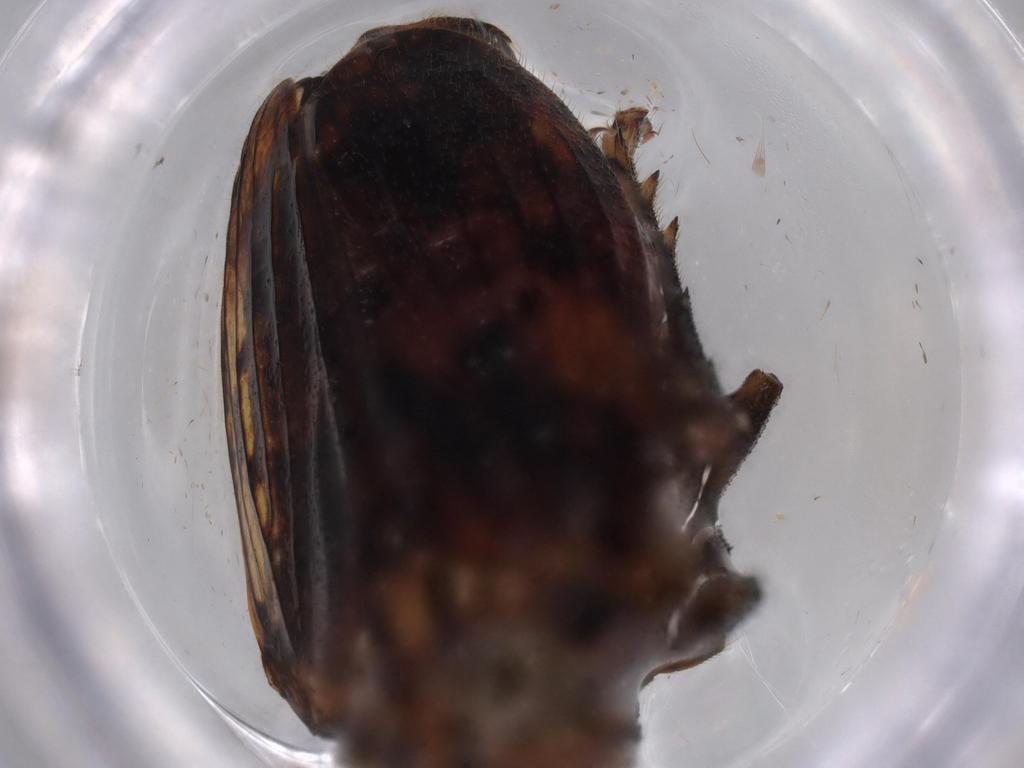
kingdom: Animalia
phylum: Arthropoda
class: Insecta
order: Hemiptera
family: Issidae
